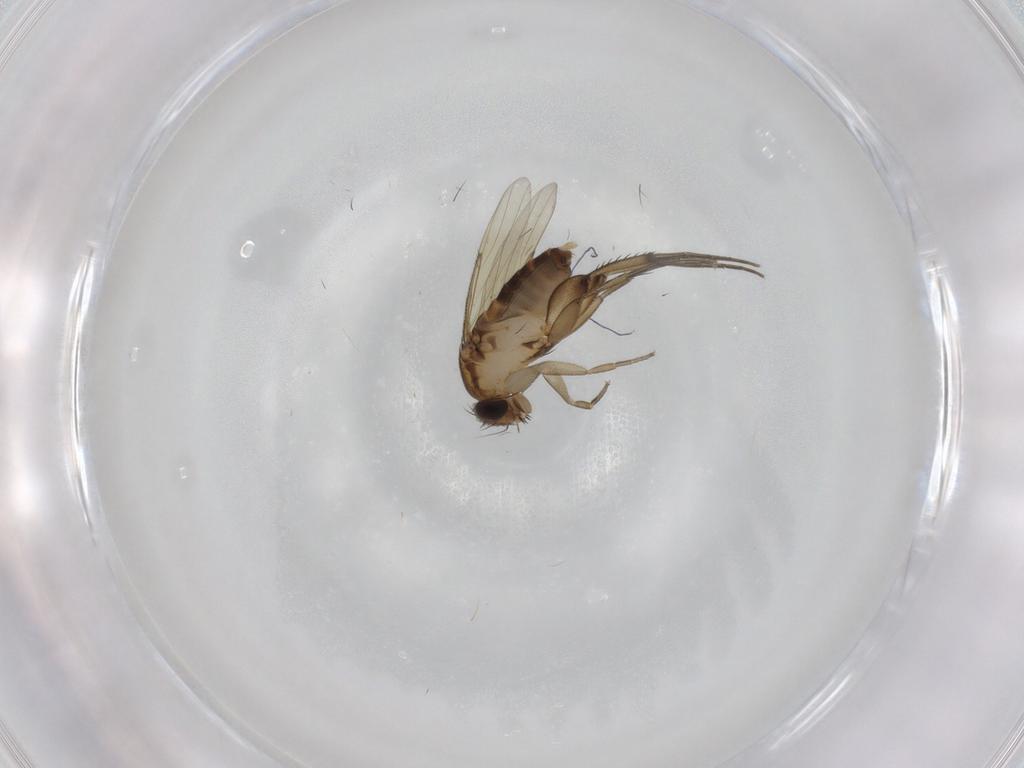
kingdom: Animalia
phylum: Arthropoda
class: Insecta
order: Diptera
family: Phoridae
